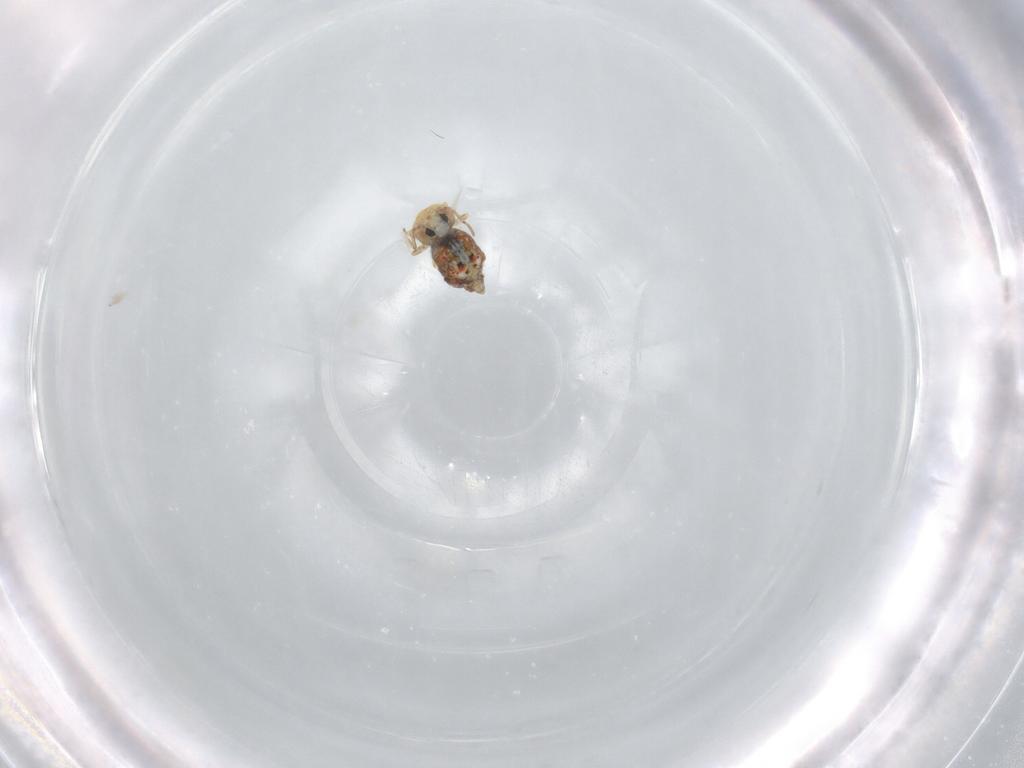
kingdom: Animalia
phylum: Arthropoda
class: Collembola
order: Symphypleona
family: Bourletiellidae
